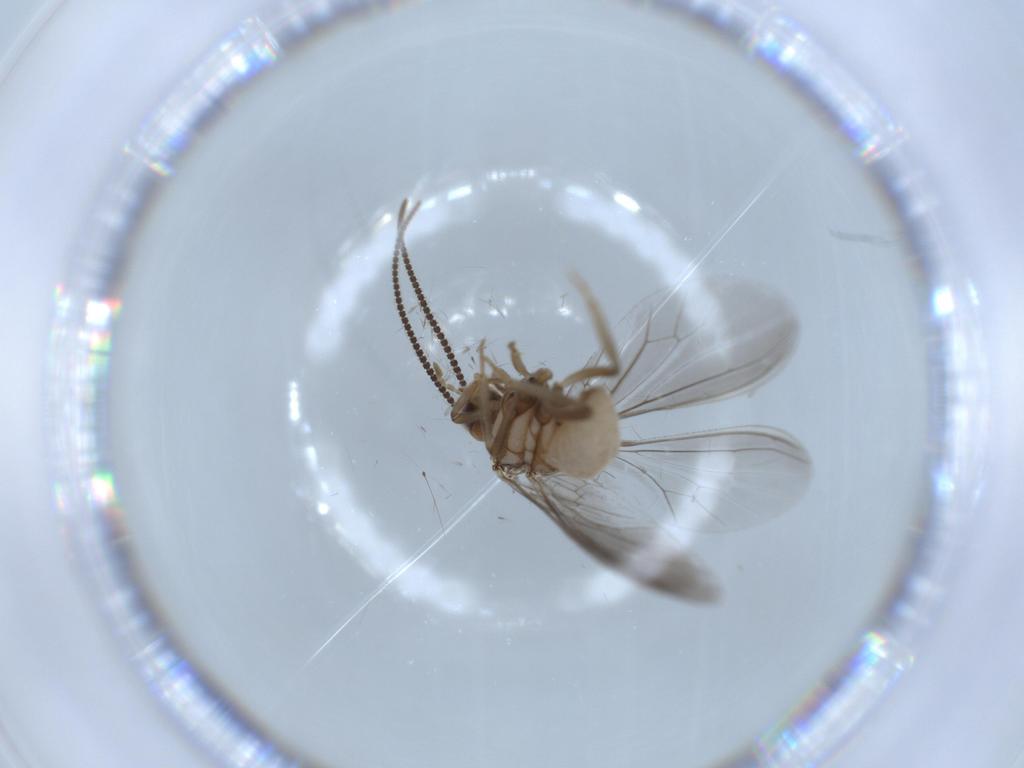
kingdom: Animalia
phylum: Arthropoda
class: Insecta
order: Neuroptera
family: Coniopterygidae
